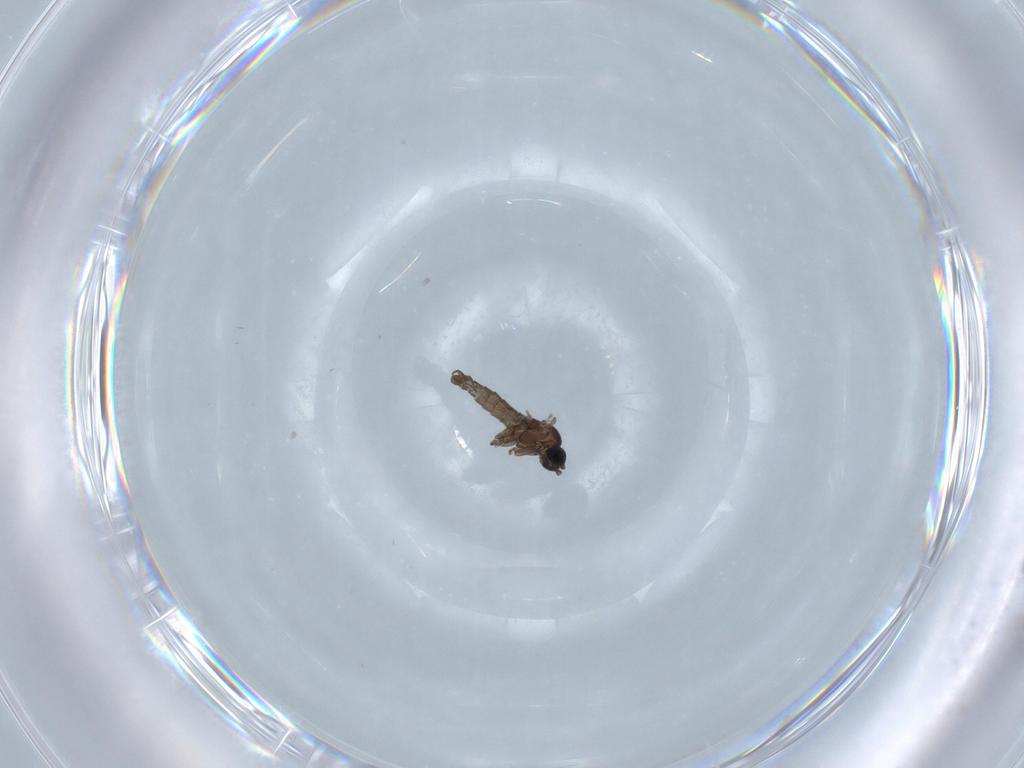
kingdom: Animalia
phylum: Arthropoda
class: Insecta
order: Diptera
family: Sciaridae
